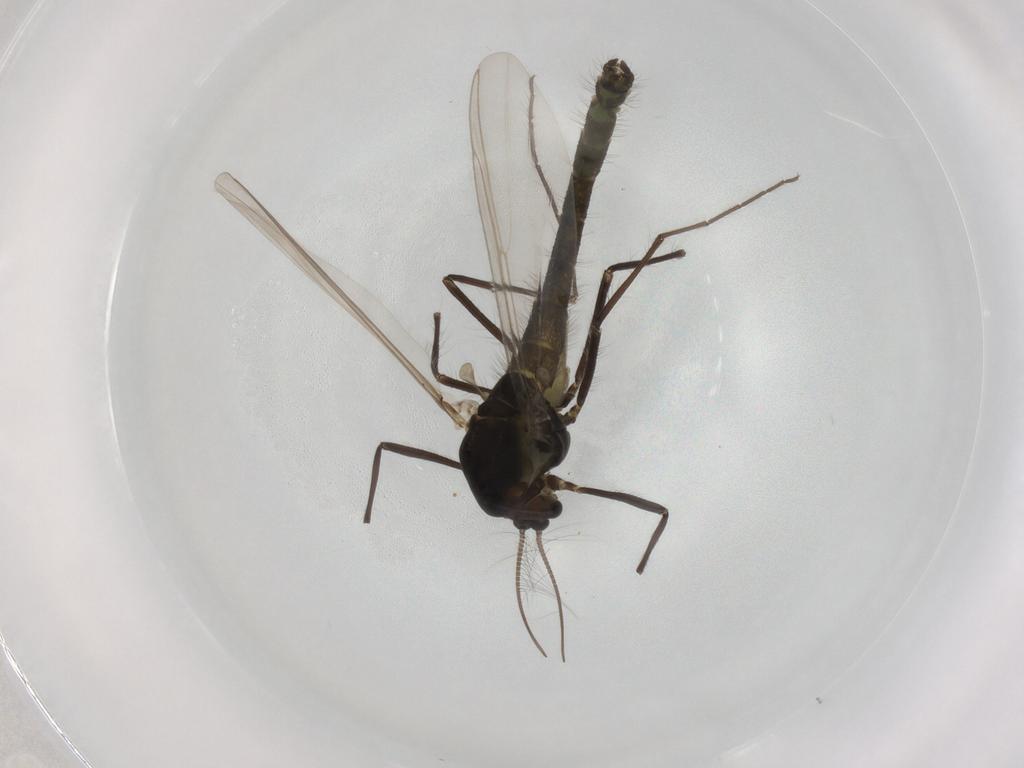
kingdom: Animalia
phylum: Arthropoda
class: Insecta
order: Diptera
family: Chironomidae
